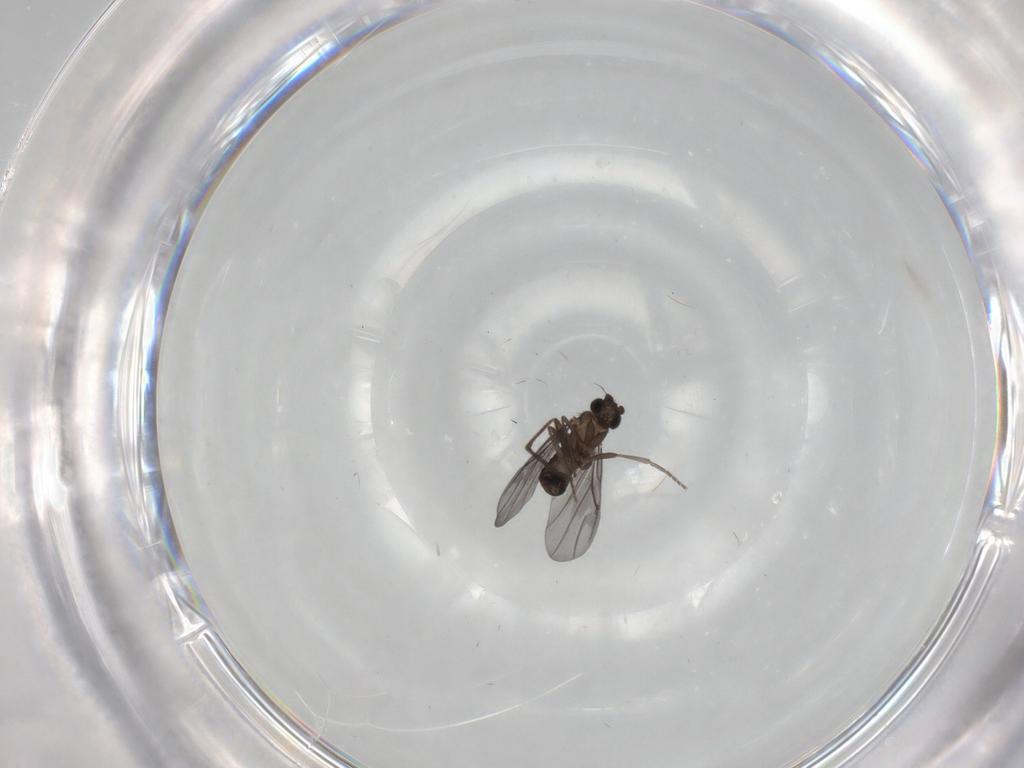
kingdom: Animalia
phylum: Arthropoda
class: Insecta
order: Diptera
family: Phoridae
